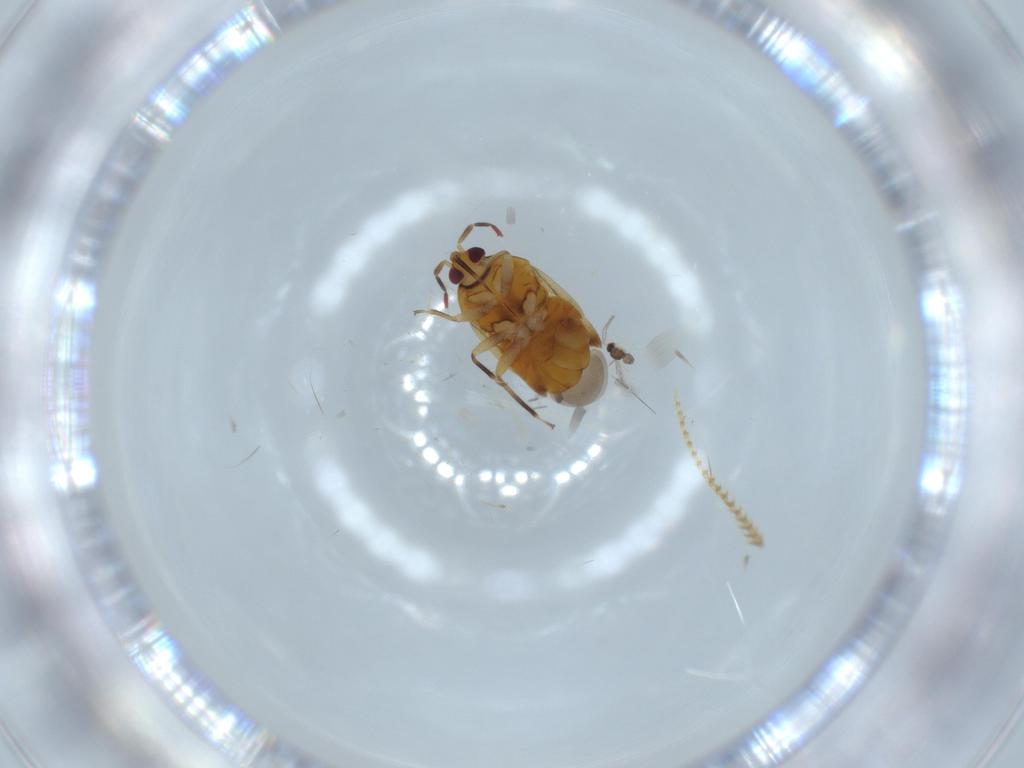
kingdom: Animalia
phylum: Arthropoda
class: Insecta
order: Hemiptera
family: Anthocoridae
